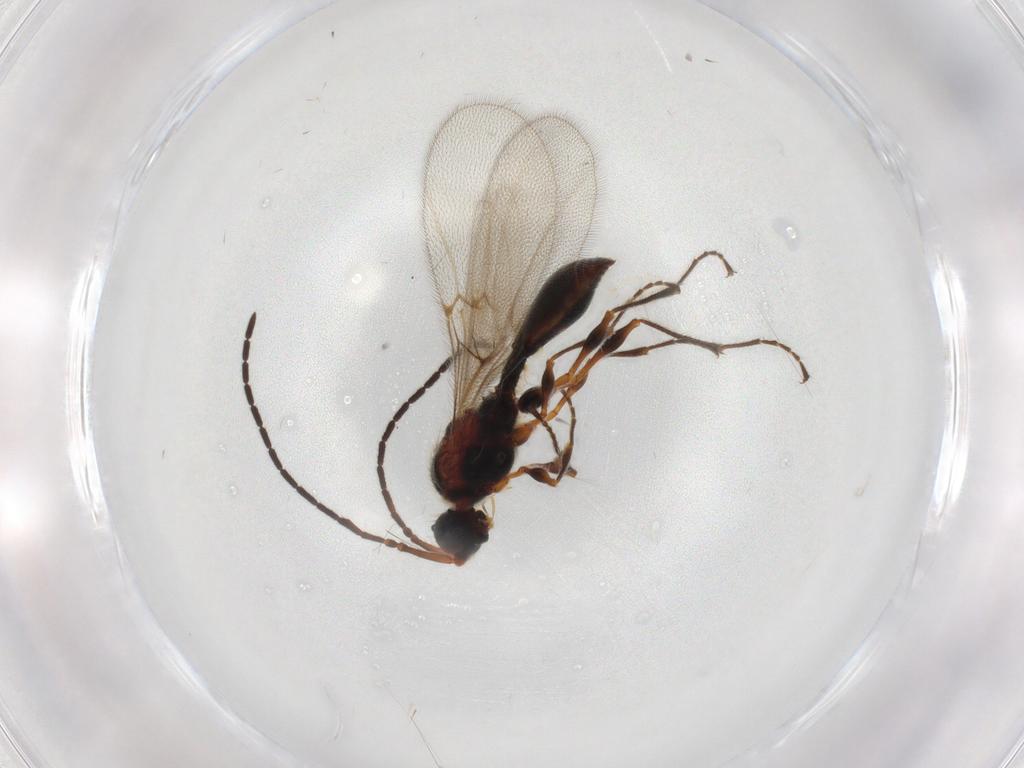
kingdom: Animalia
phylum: Arthropoda
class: Insecta
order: Hymenoptera
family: Diapriidae
